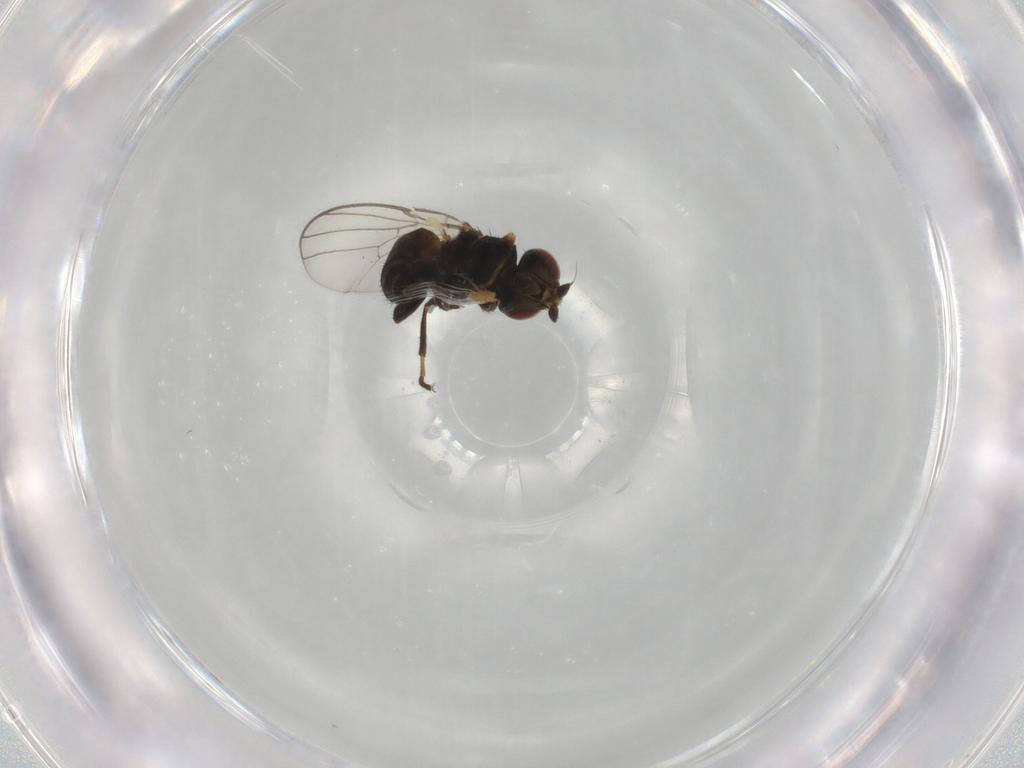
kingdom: Animalia
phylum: Arthropoda
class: Insecta
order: Diptera
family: Chloropidae
